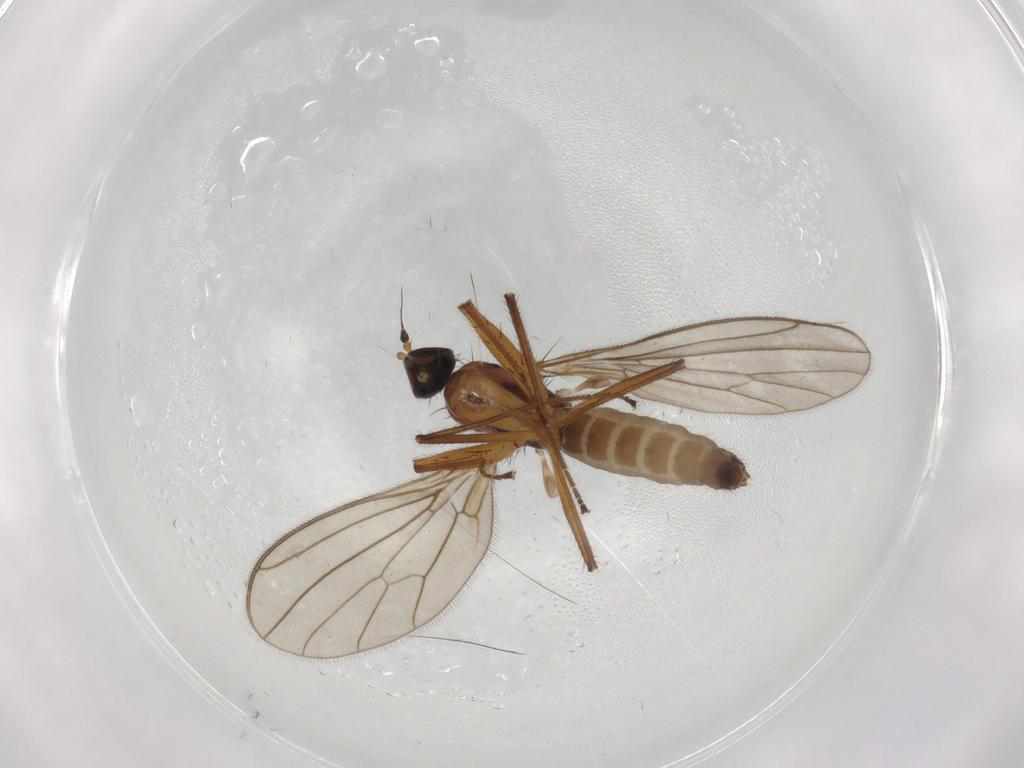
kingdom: Animalia
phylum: Arthropoda
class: Insecta
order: Diptera
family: Empididae
